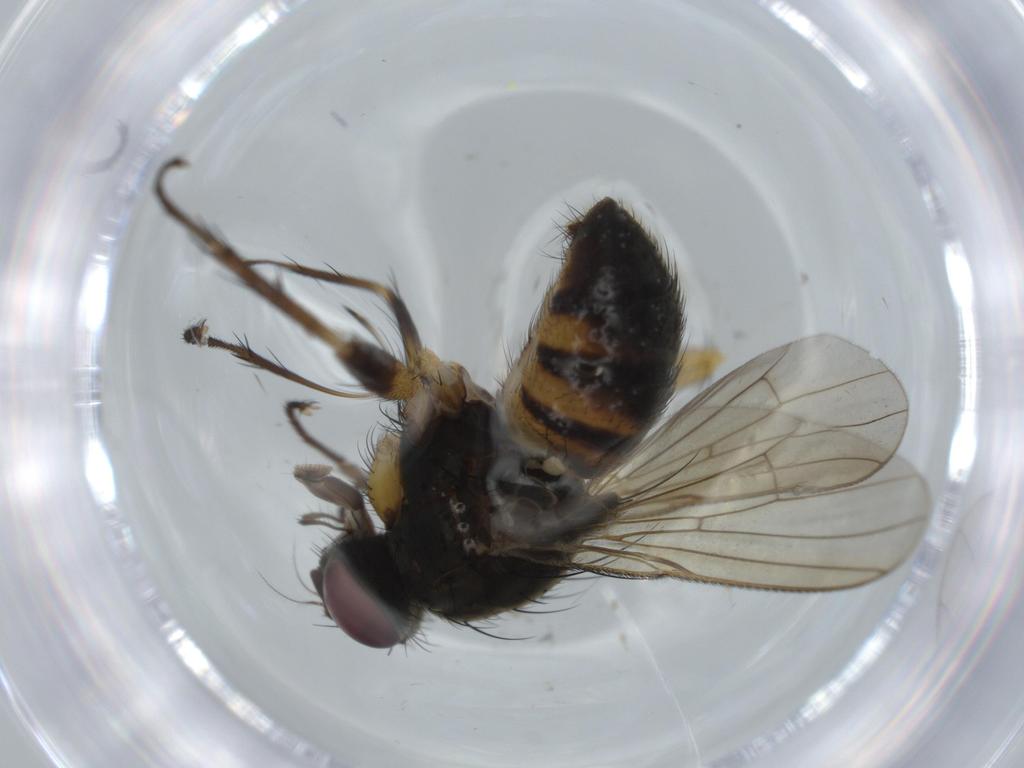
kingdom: Animalia
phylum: Arthropoda
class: Insecta
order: Diptera
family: Muscidae
